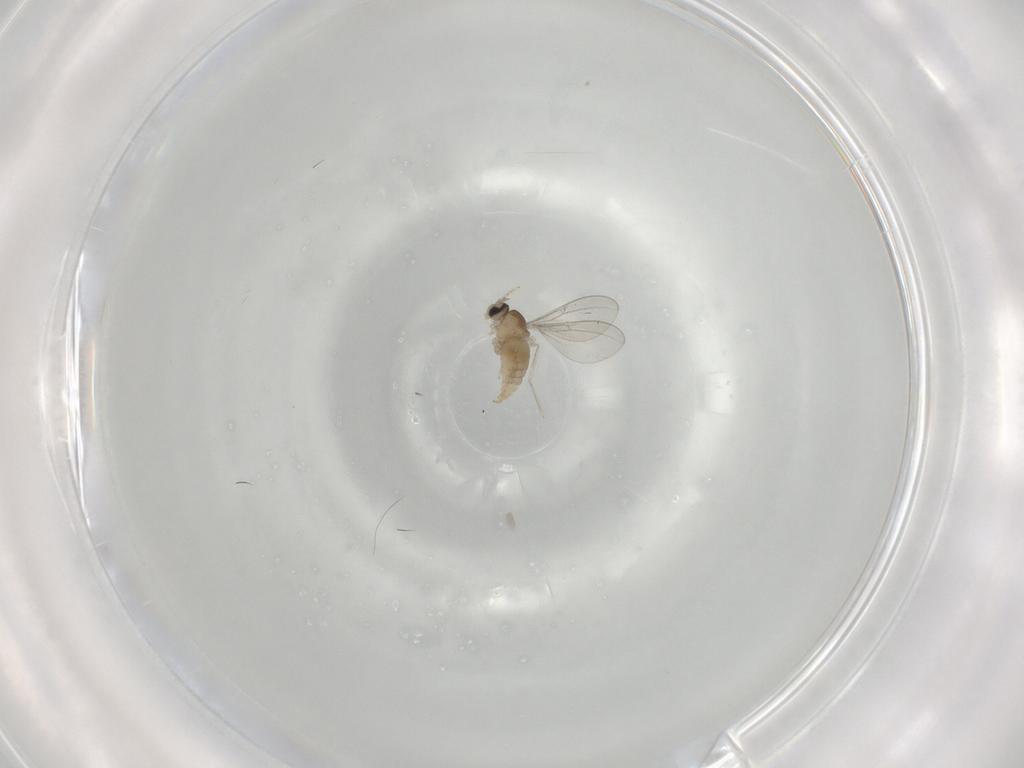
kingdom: Animalia
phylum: Arthropoda
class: Insecta
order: Diptera
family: Cecidomyiidae
